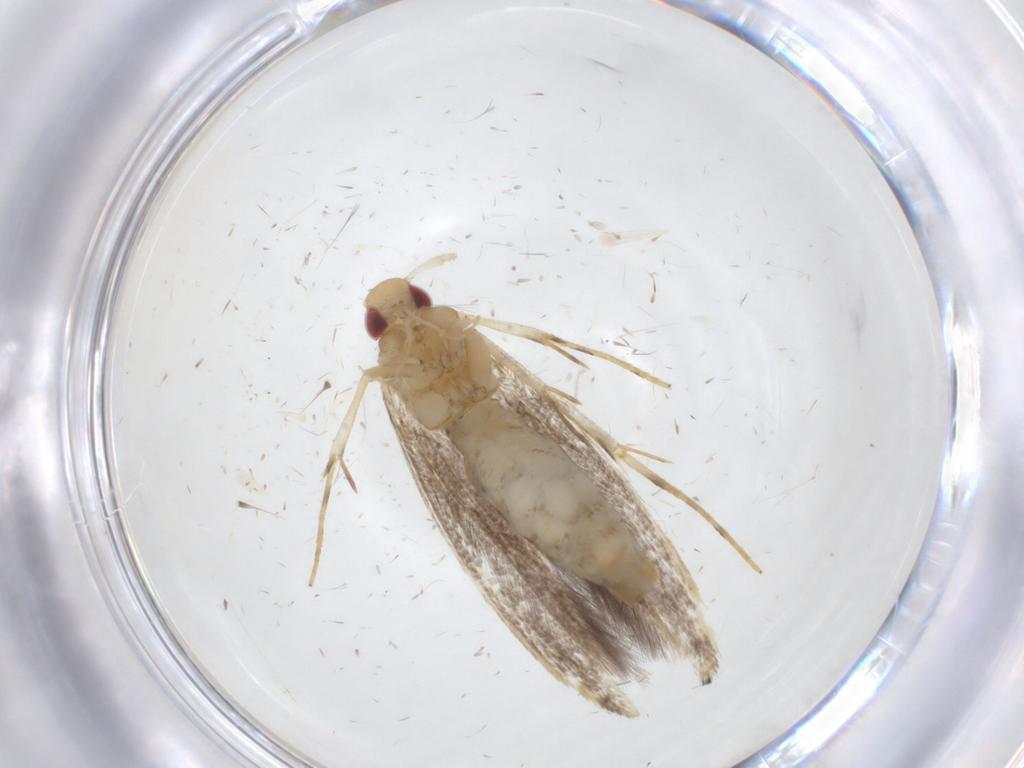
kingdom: Animalia
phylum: Arthropoda
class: Insecta
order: Lepidoptera
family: Cosmopterigidae
